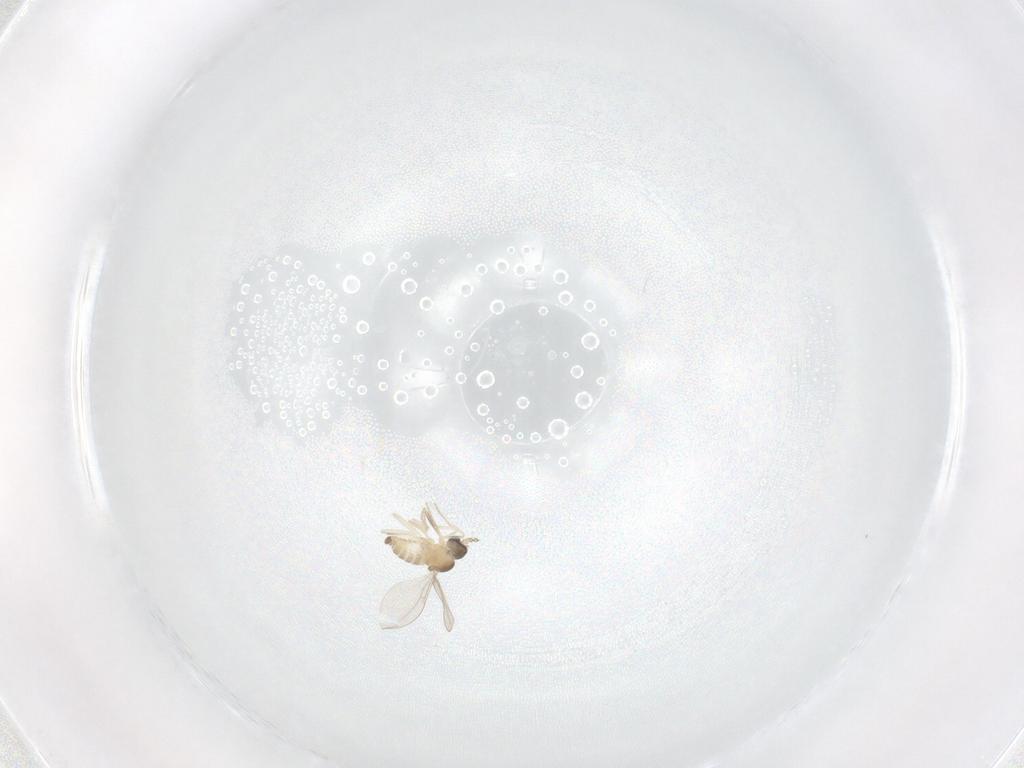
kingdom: Animalia
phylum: Arthropoda
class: Insecta
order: Diptera
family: Cecidomyiidae
